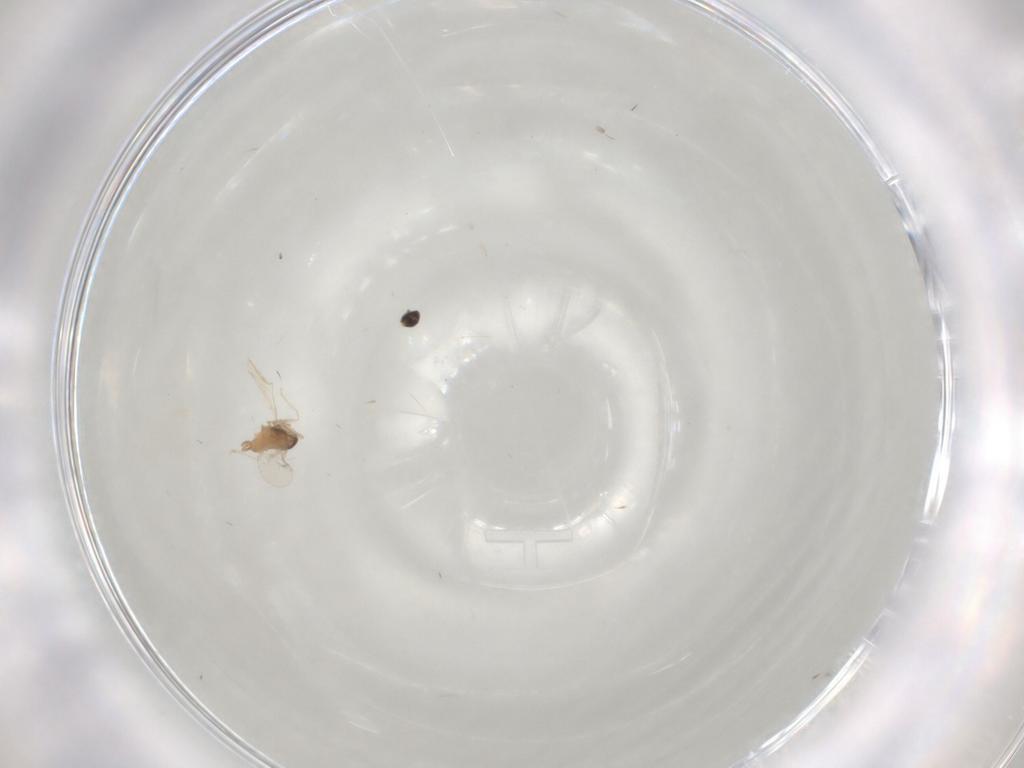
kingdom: Animalia
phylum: Arthropoda
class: Insecta
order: Diptera
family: Cecidomyiidae
